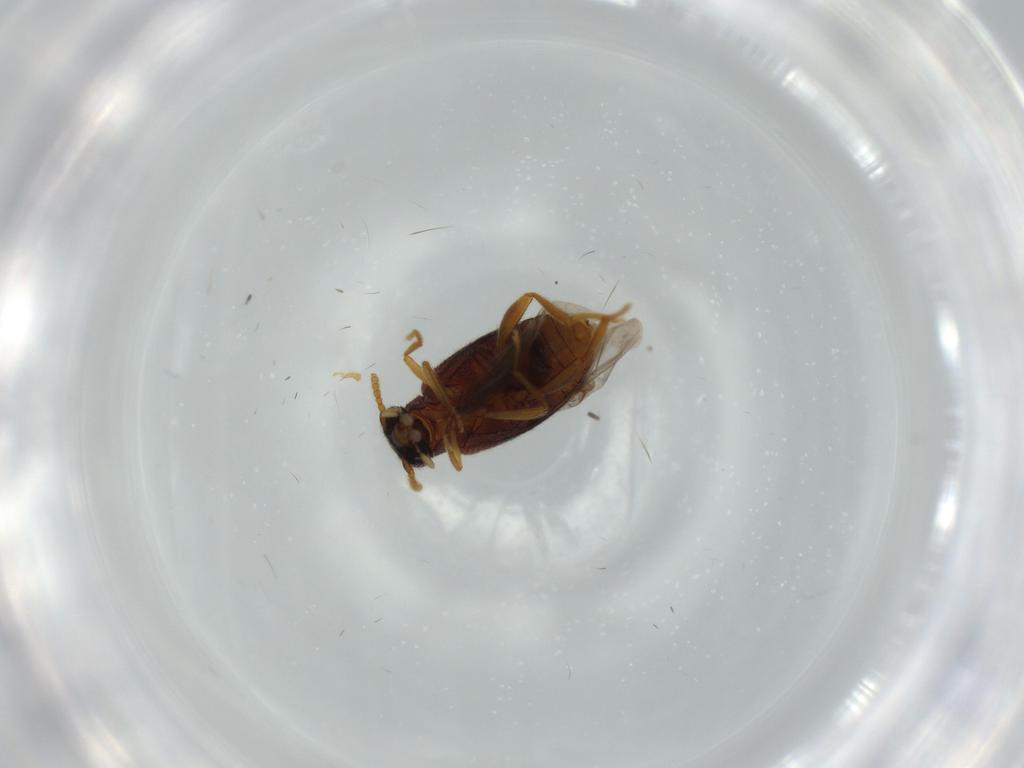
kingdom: Animalia
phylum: Arthropoda
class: Insecta
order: Coleoptera
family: Aderidae
